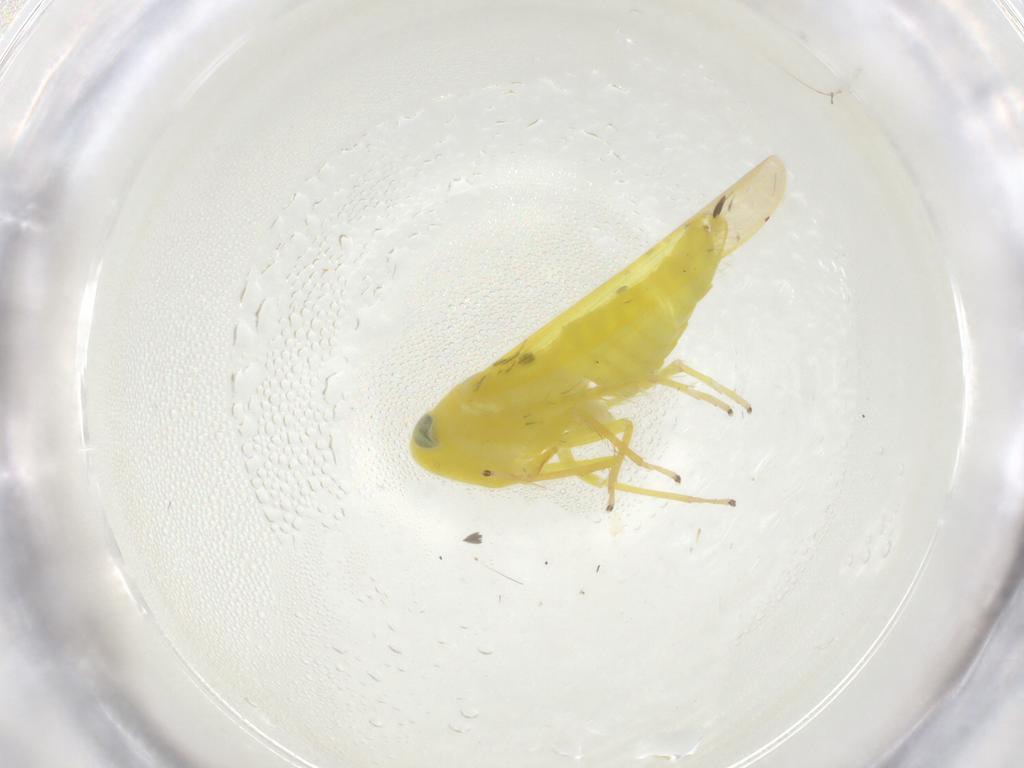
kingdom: Animalia
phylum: Arthropoda
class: Insecta
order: Hemiptera
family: Cicadellidae
